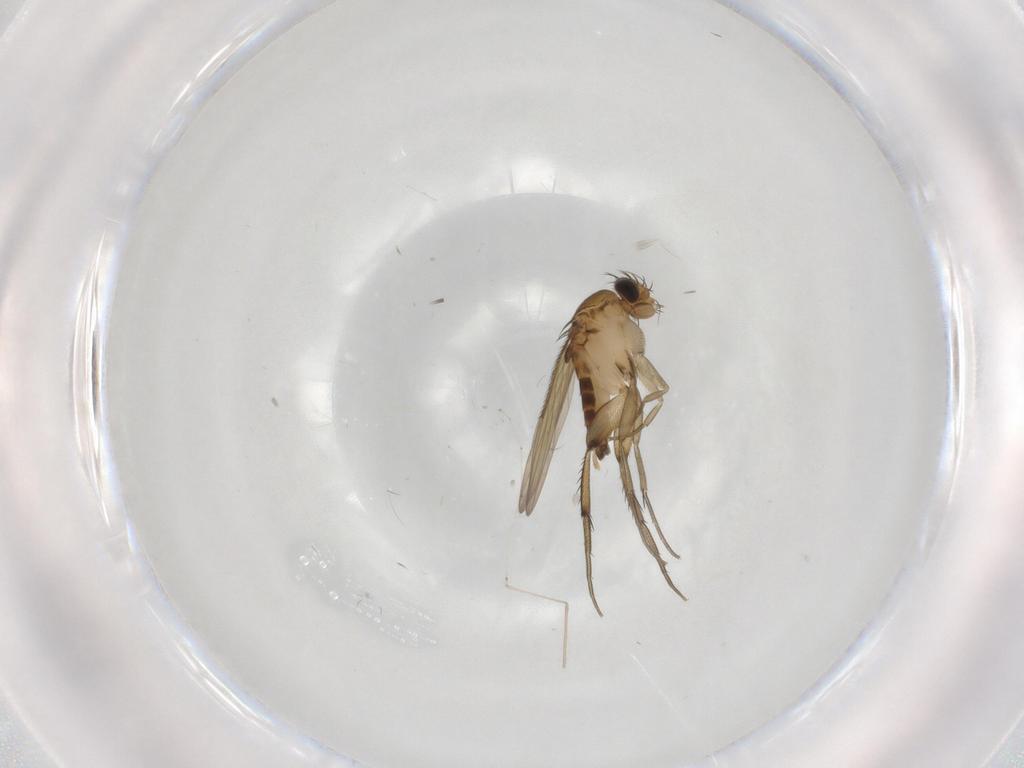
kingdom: Animalia
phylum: Arthropoda
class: Insecta
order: Diptera
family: Phoridae
